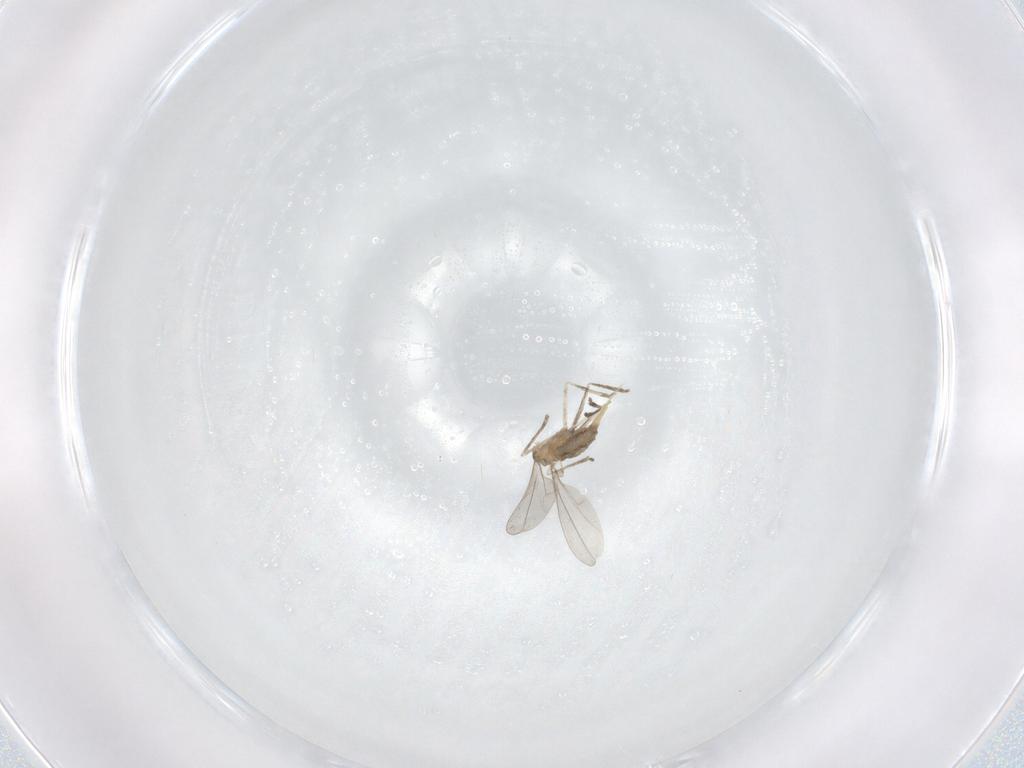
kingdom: Animalia
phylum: Arthropoda
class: Insecta
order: Diptera
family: Cecidomyiidae
